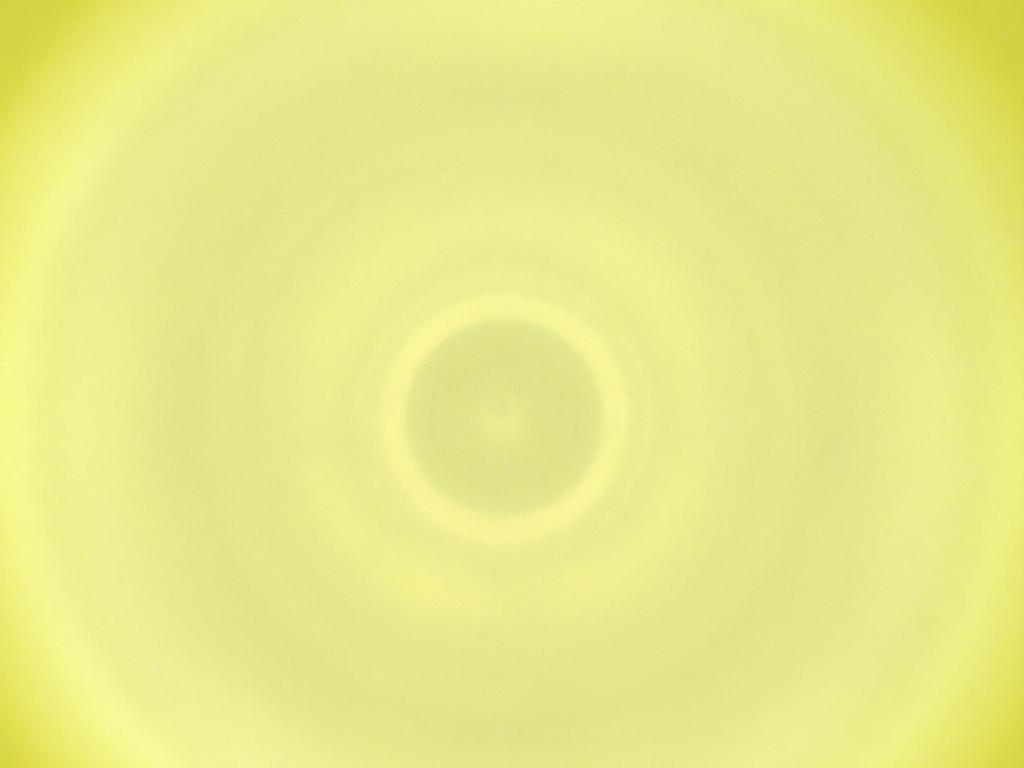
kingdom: Animalia
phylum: Arthropoda
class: Insecta
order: Diptera
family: Cecidomyiidae
